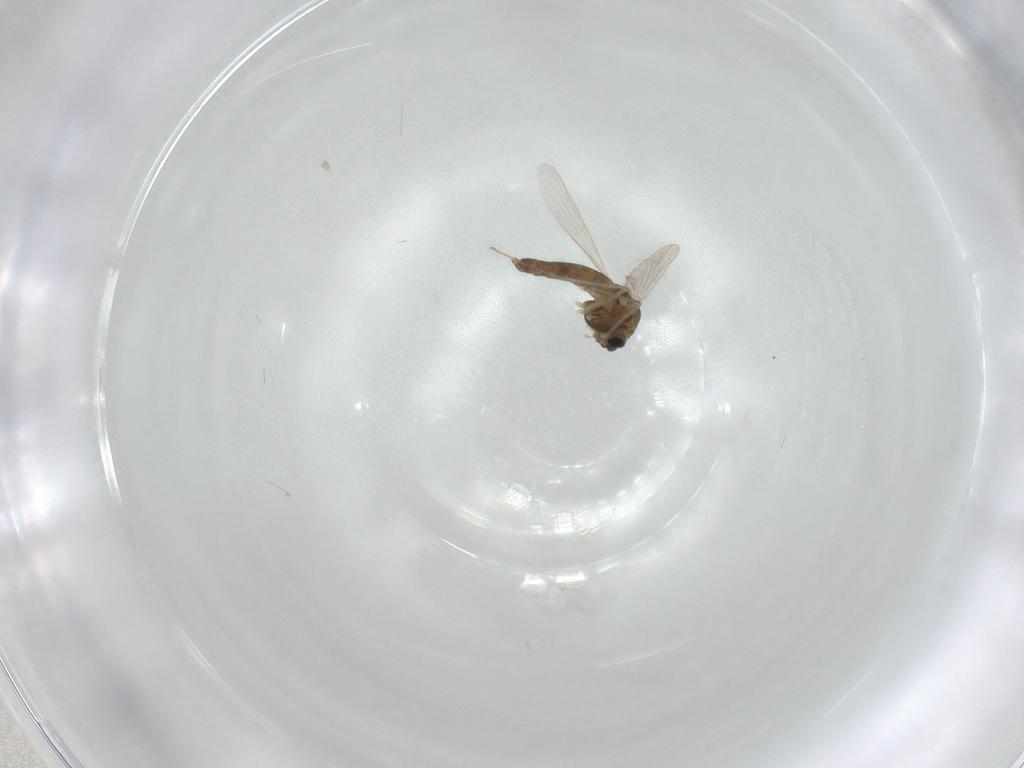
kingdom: Animalia
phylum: Arthropoda
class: Insecta
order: Diptera
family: Chironomidae
